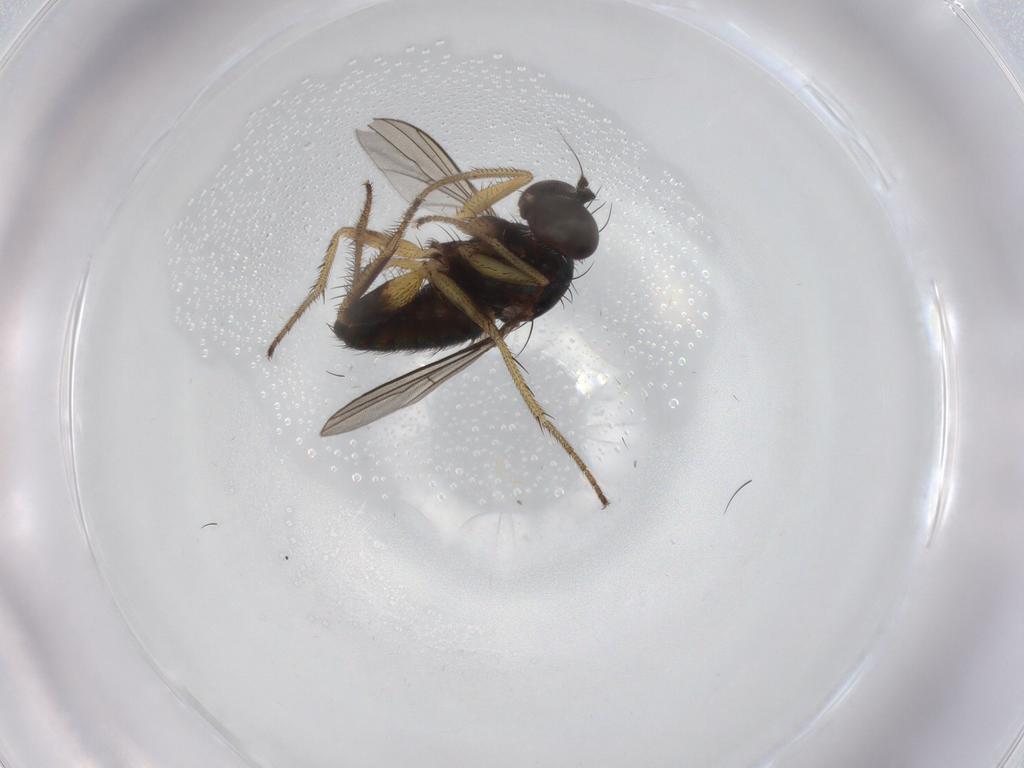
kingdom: Animalia
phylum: Arthropoda
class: Insecta
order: Diptera
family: Dolichopodidae
